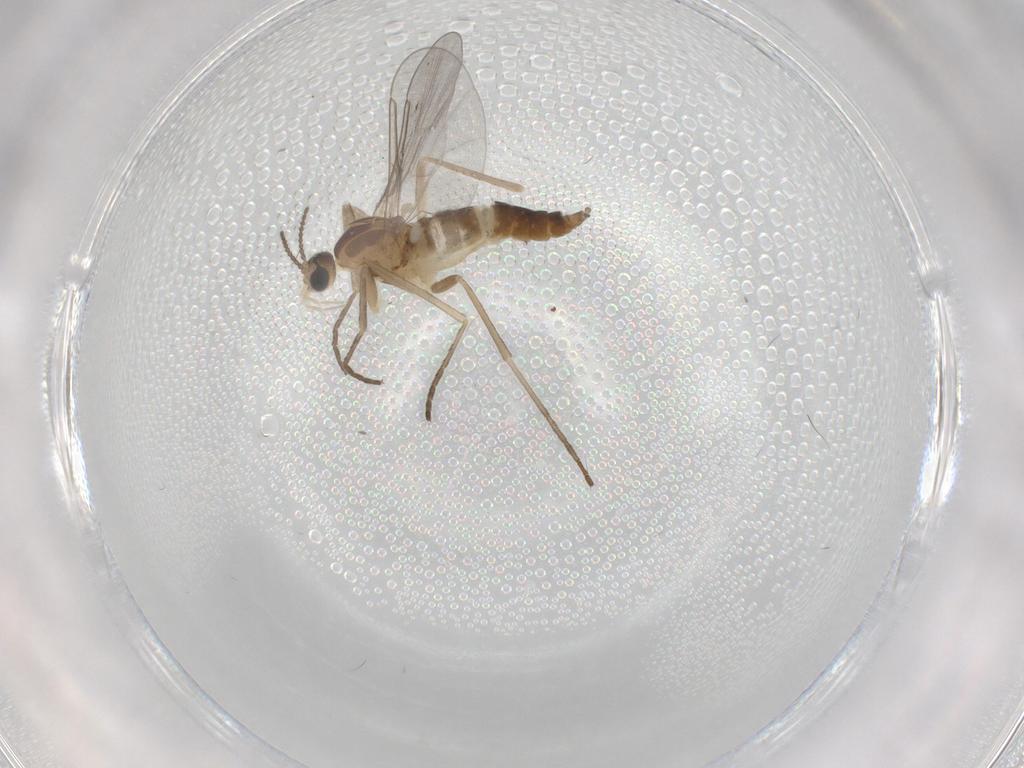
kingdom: Animalia
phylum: Arthropoda
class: Insecta
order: Diptera
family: Cecidomyiidae
